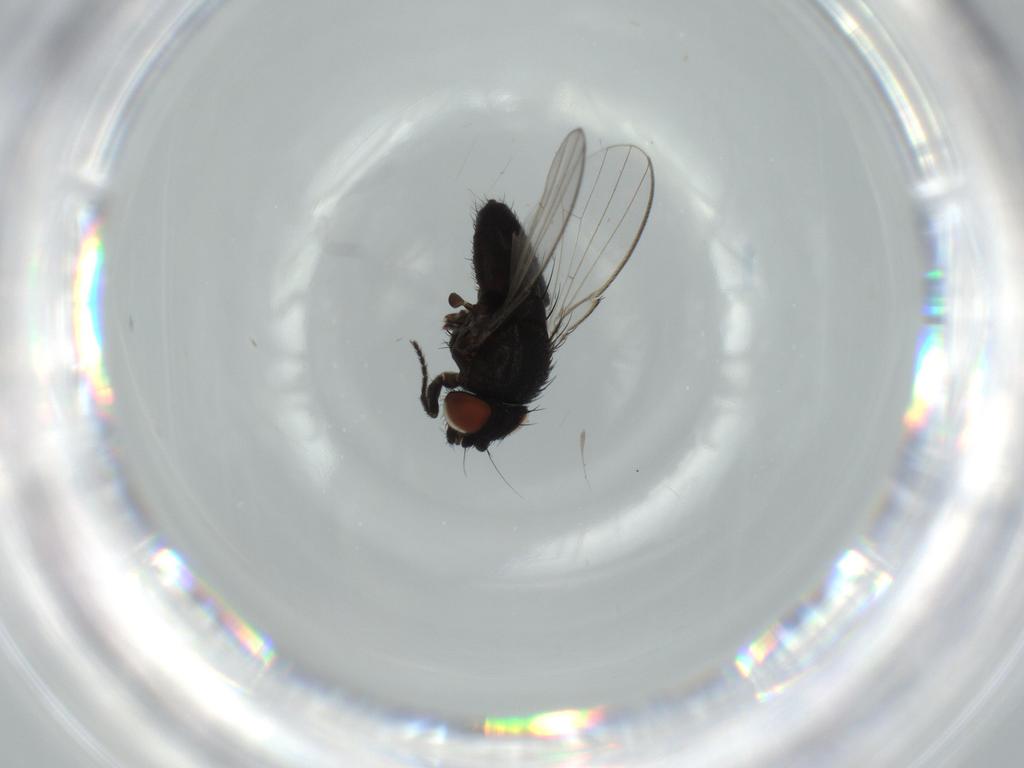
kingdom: Animalia
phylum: Arthropoda
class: Insecta
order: Diptera
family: Milichiidae
